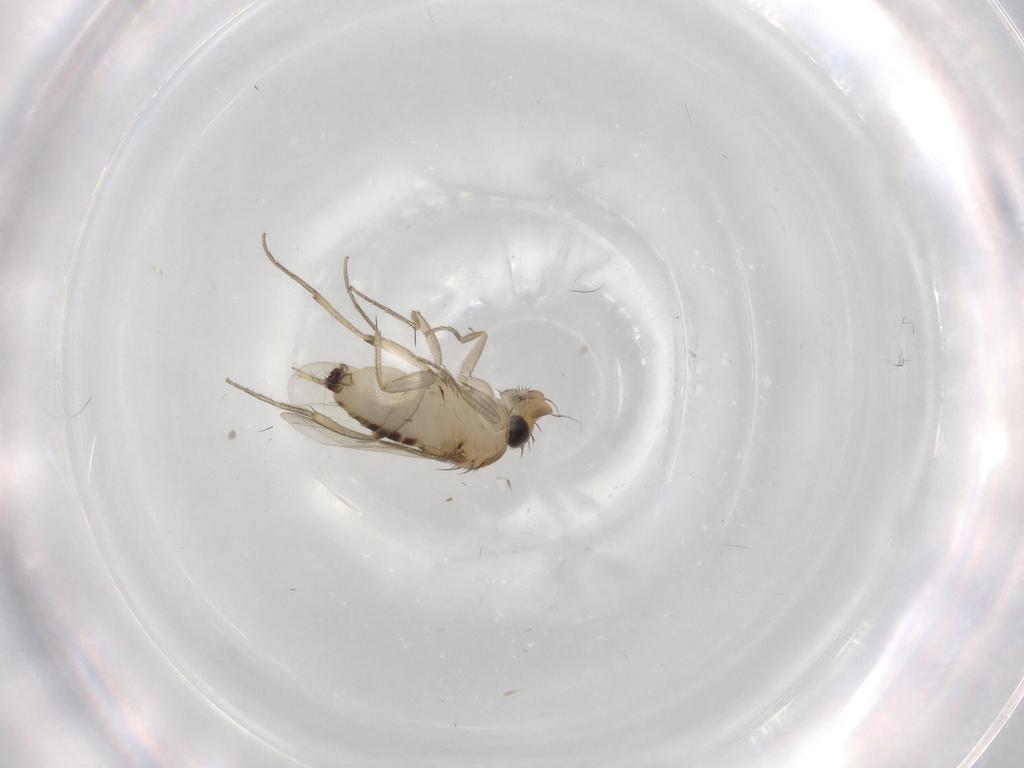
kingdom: Animalia
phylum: Arthropoda
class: Insecta
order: Diptera
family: Phoridae
